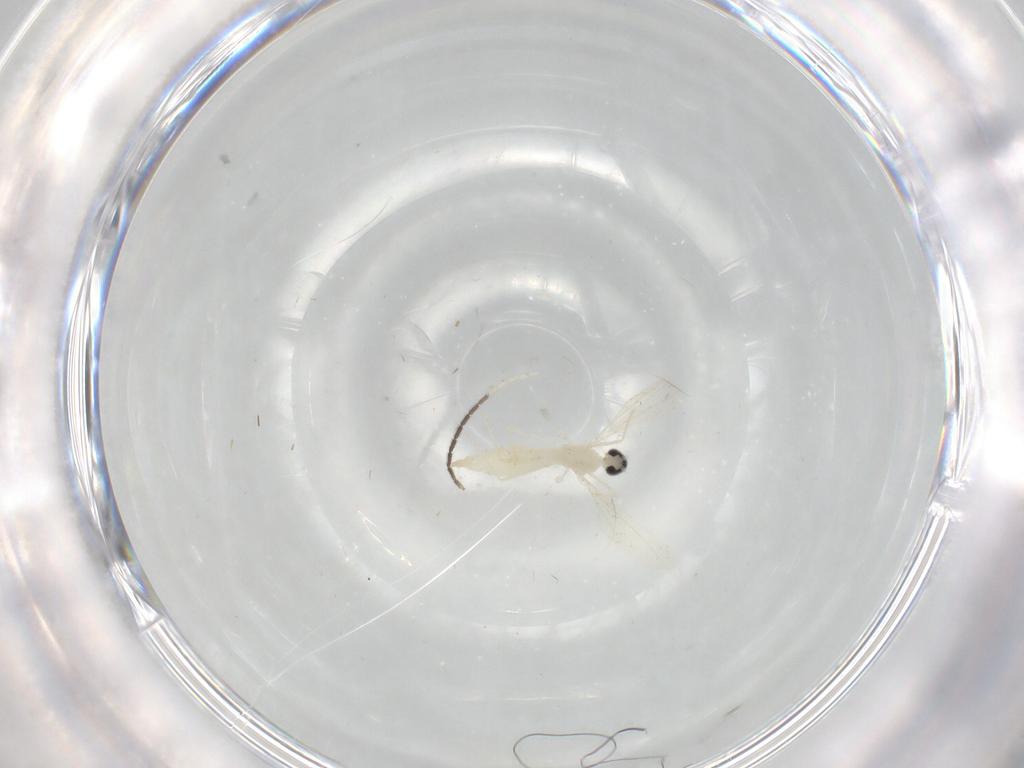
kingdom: Animalia
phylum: Arthropoda
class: Insecta
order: Diptera
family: Cecidomyiidae
